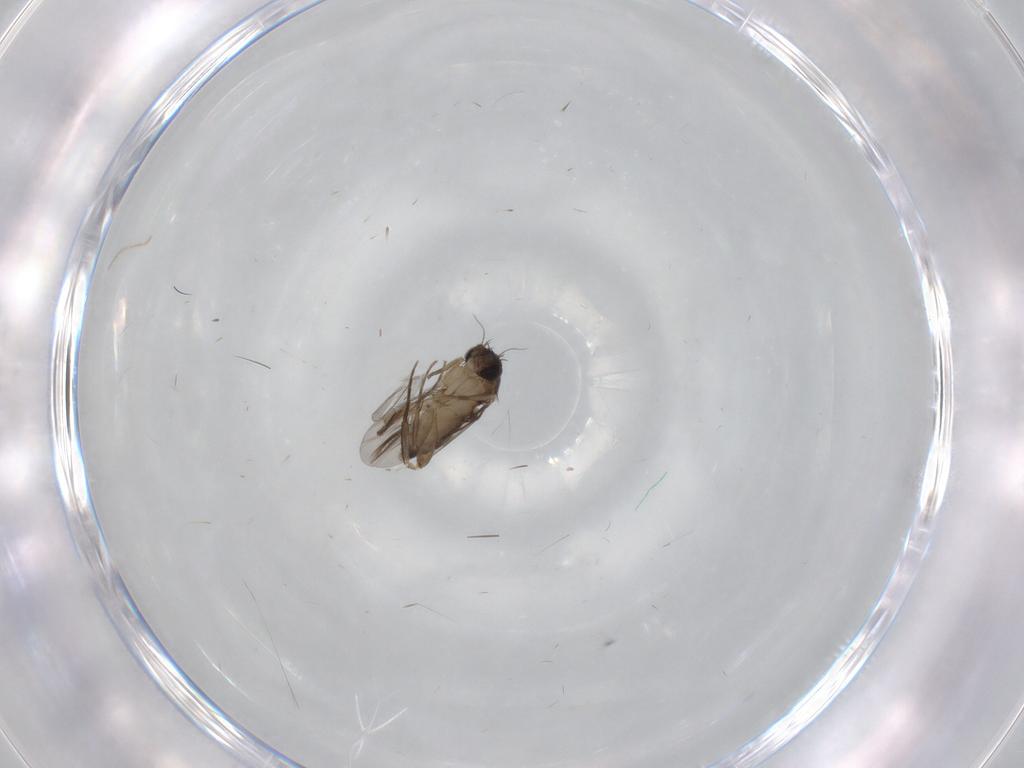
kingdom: Animalia
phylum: Arthropoda
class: Insecta
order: Diptera
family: Phoridae
